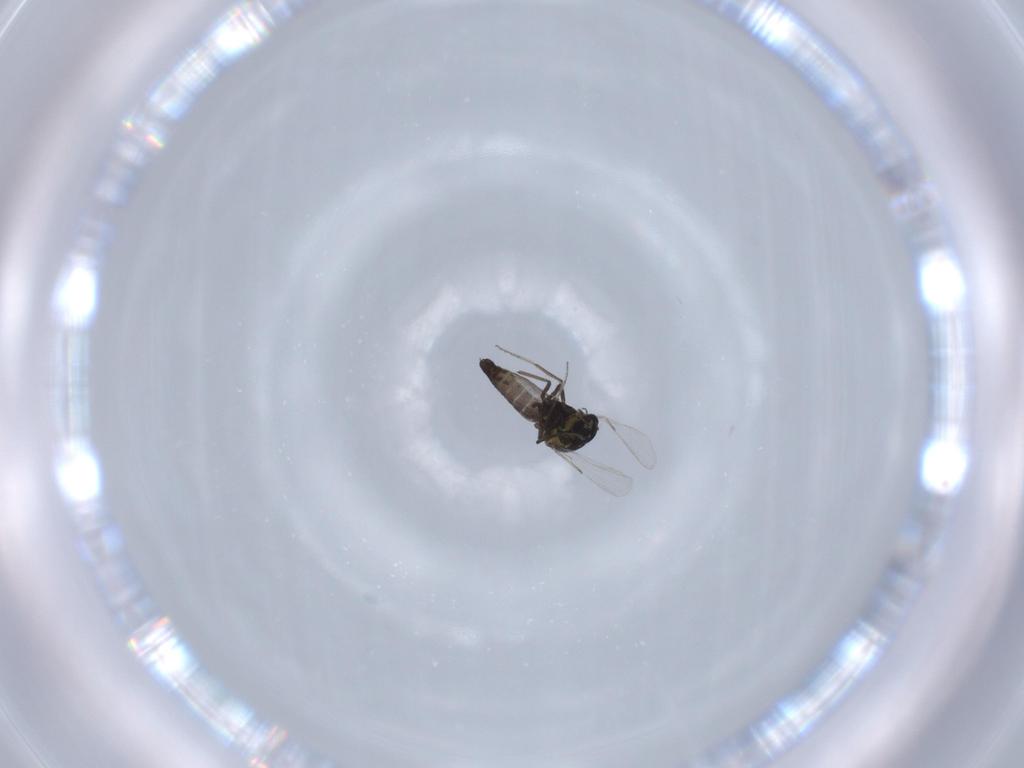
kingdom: Animalia
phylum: Arthropoda
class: Insecta
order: Diptera
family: Ceratopogonidae
